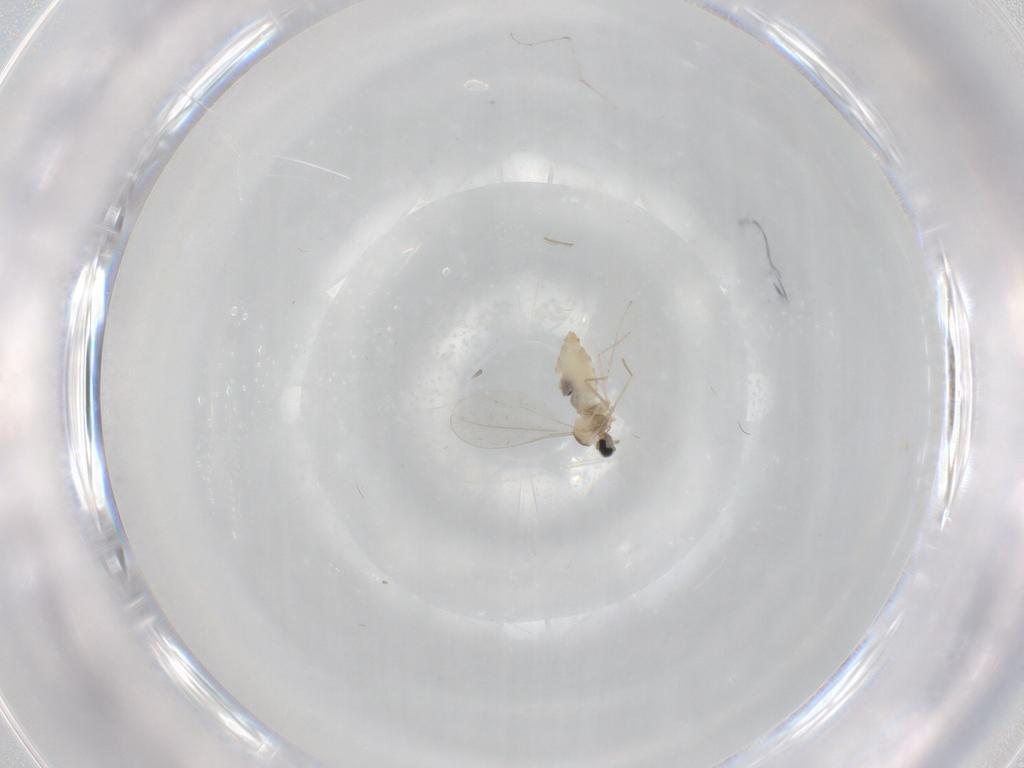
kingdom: Animalia
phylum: Arthropoda
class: Insecta
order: Diptera
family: Cecidomyiidae
